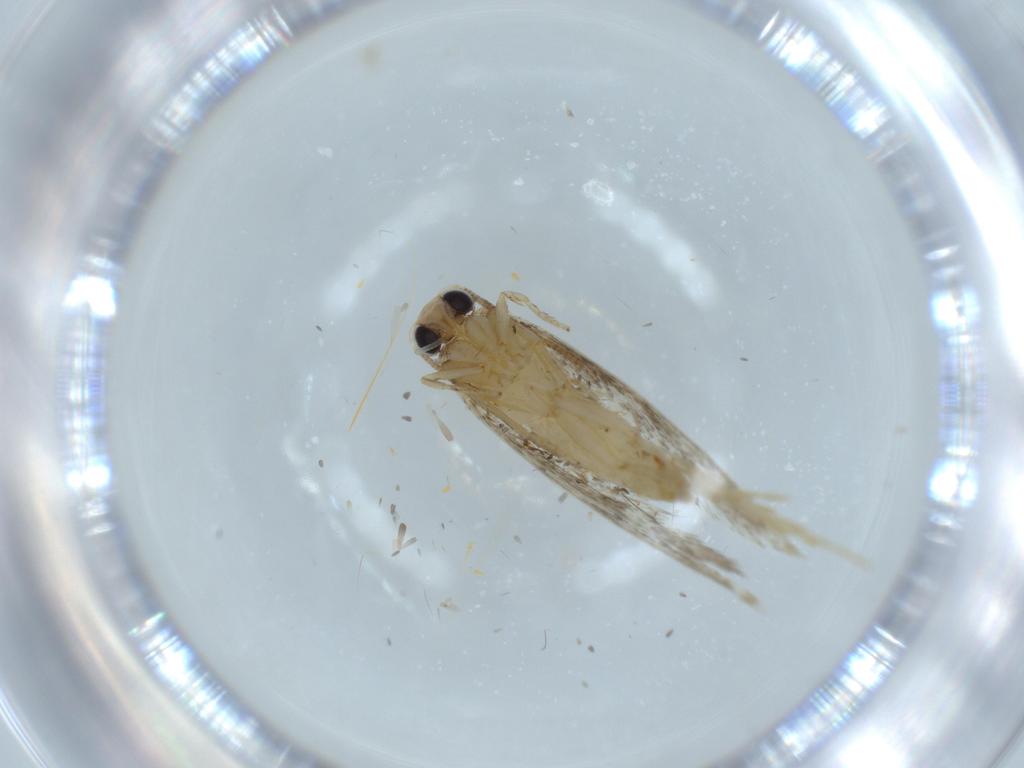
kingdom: Animalia
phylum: Arthropoda
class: Insecta
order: Lepidoptera
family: Tineidae
